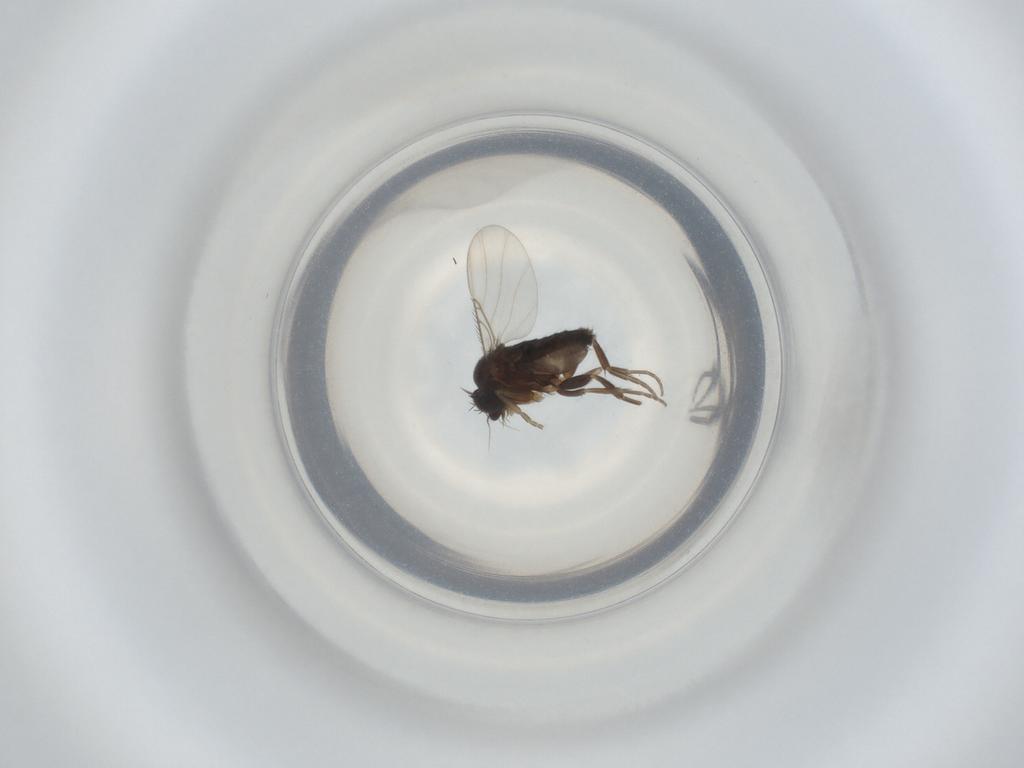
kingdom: Animalia
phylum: Arthropoda
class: Insecta
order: Diptera
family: Phoridae
